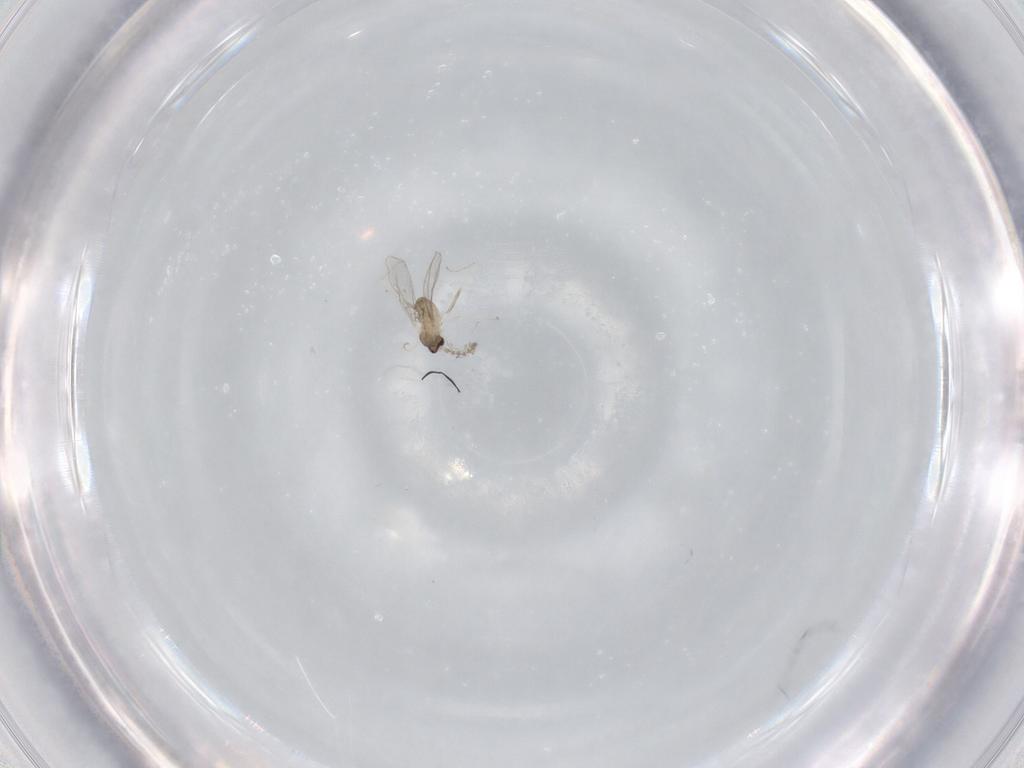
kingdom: Animalia
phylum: Arthropoda
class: Insecta
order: Diptera
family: Cecidomyiidae
